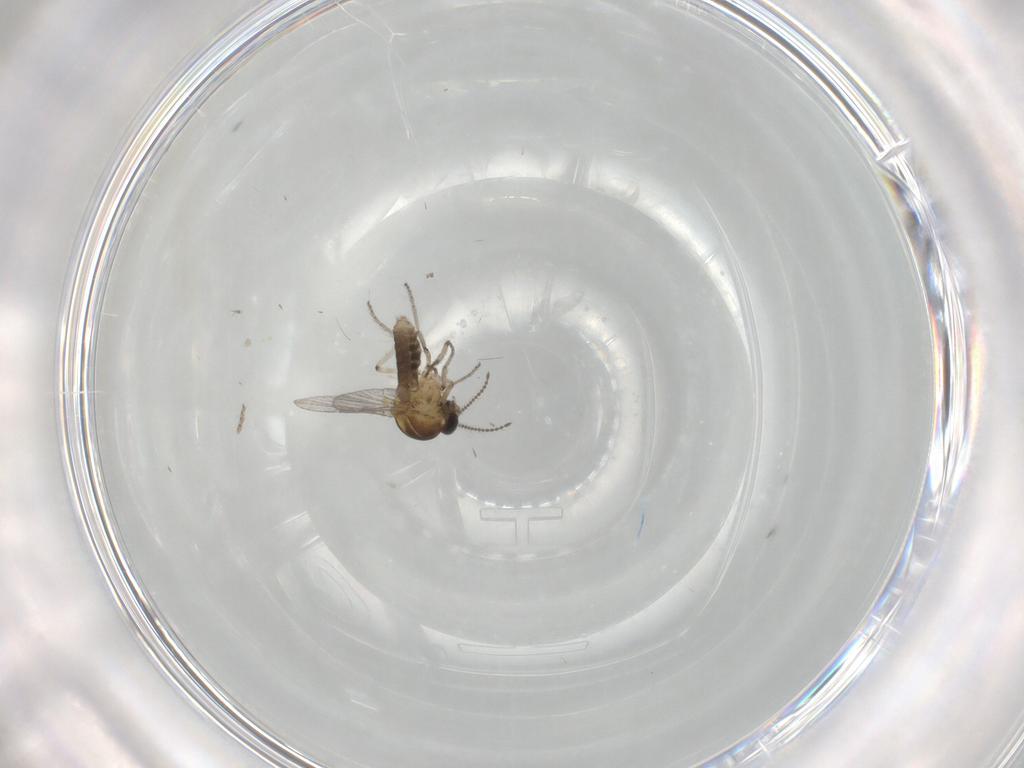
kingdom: Animalia
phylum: Arthropoda
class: Insecta
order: Diptera
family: Ceratopogonidae
